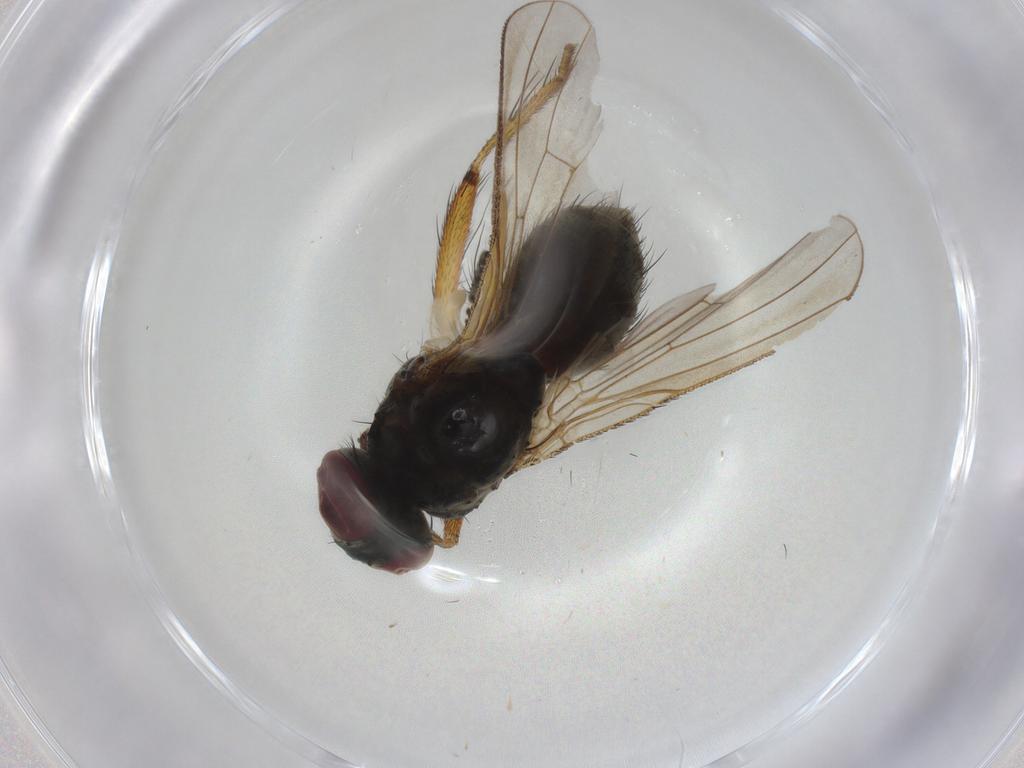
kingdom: Animalia
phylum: Arthropoda
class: Insecta
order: Diptera
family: Muscidae
